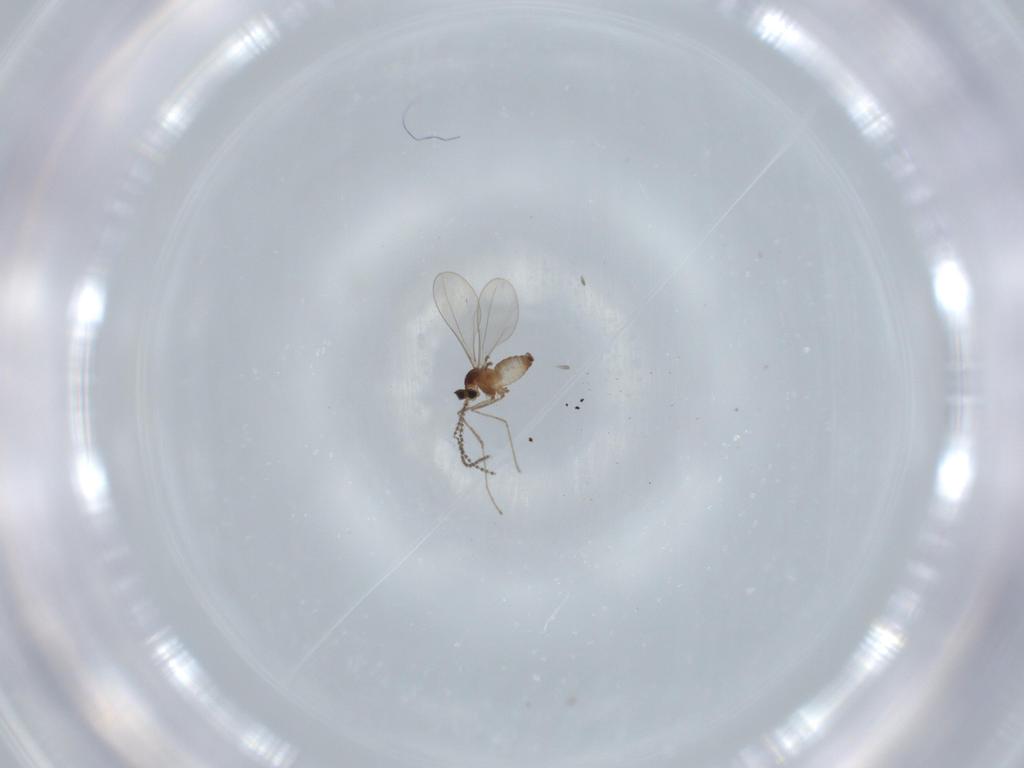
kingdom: Animalia
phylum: Arthropoda
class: Insecta
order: Diptera
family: Cecidomyiidae
